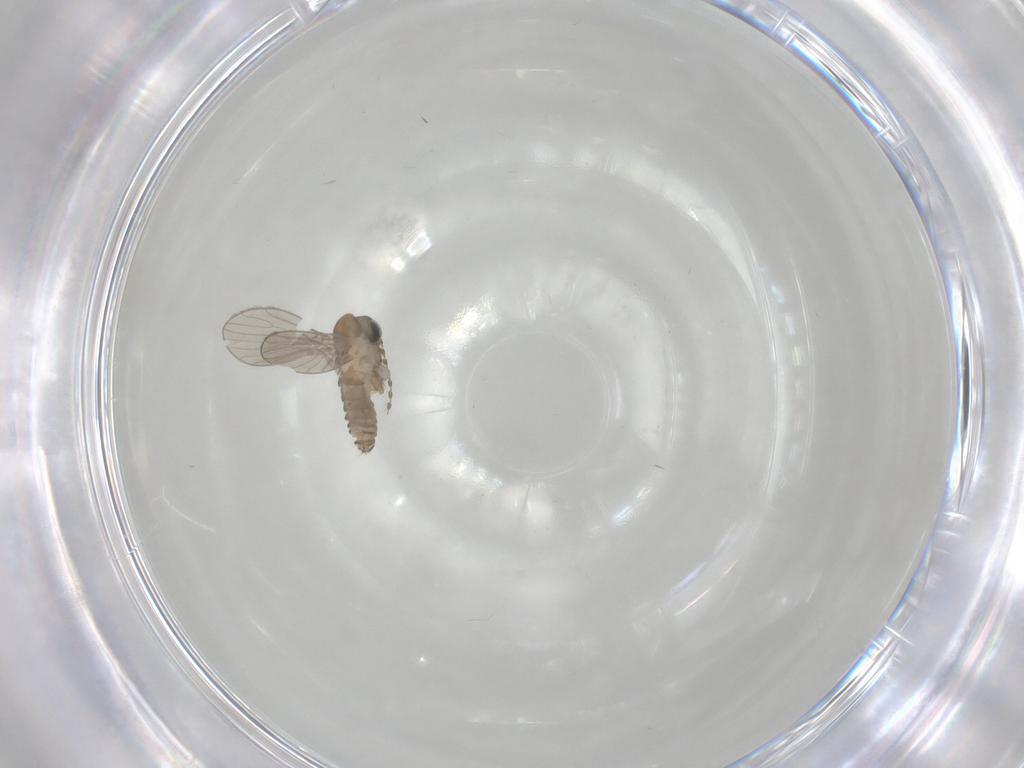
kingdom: Animalia
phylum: Arthropoda
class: Insecta
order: Diptera
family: Psychodidae
